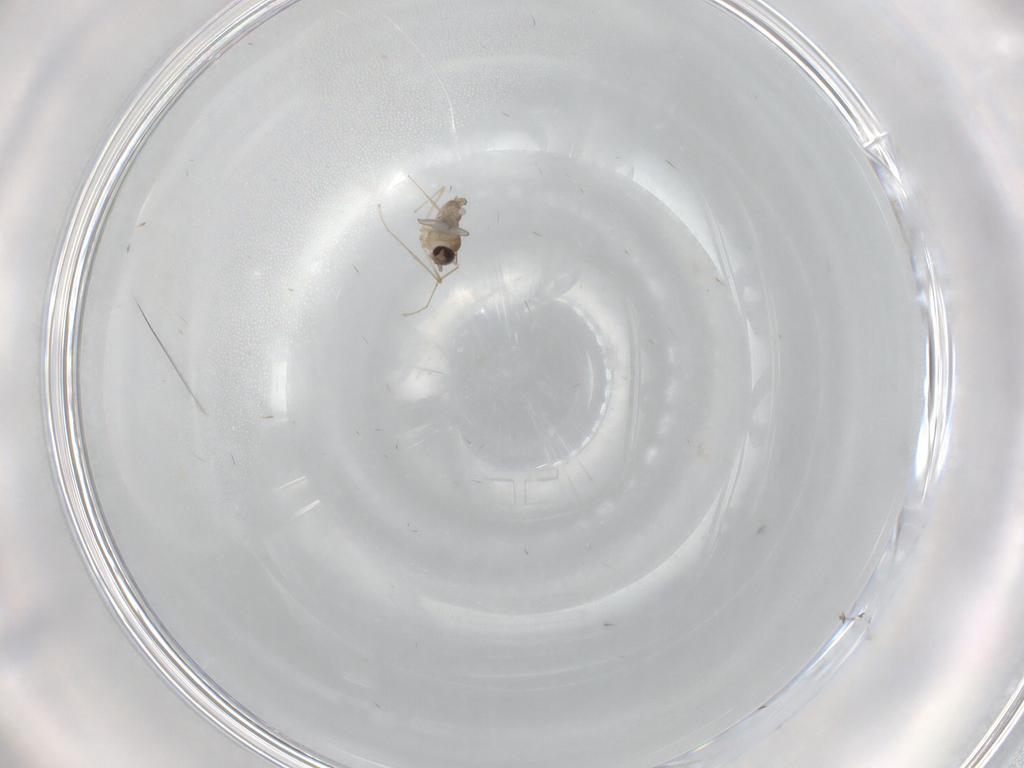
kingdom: Animalia
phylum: Arthropoda
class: Insecta
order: Diptera
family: Cecidomyiidae
